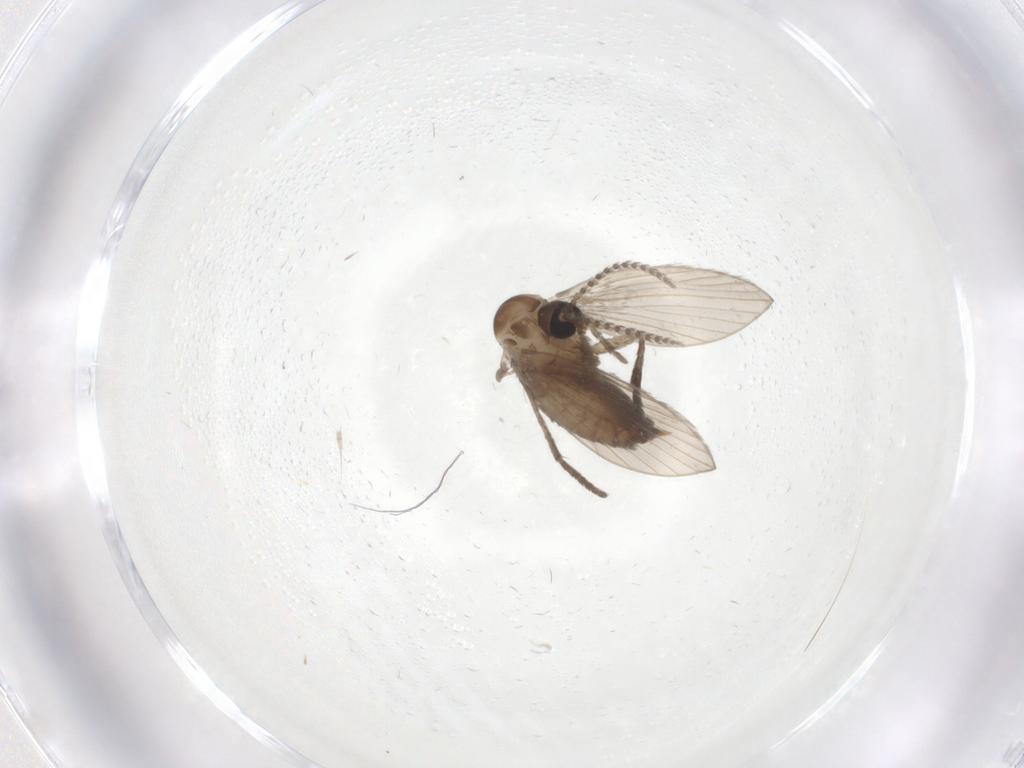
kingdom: Animalia
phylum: Arthropoda
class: Insecta
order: Diptera
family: Psychodidae
